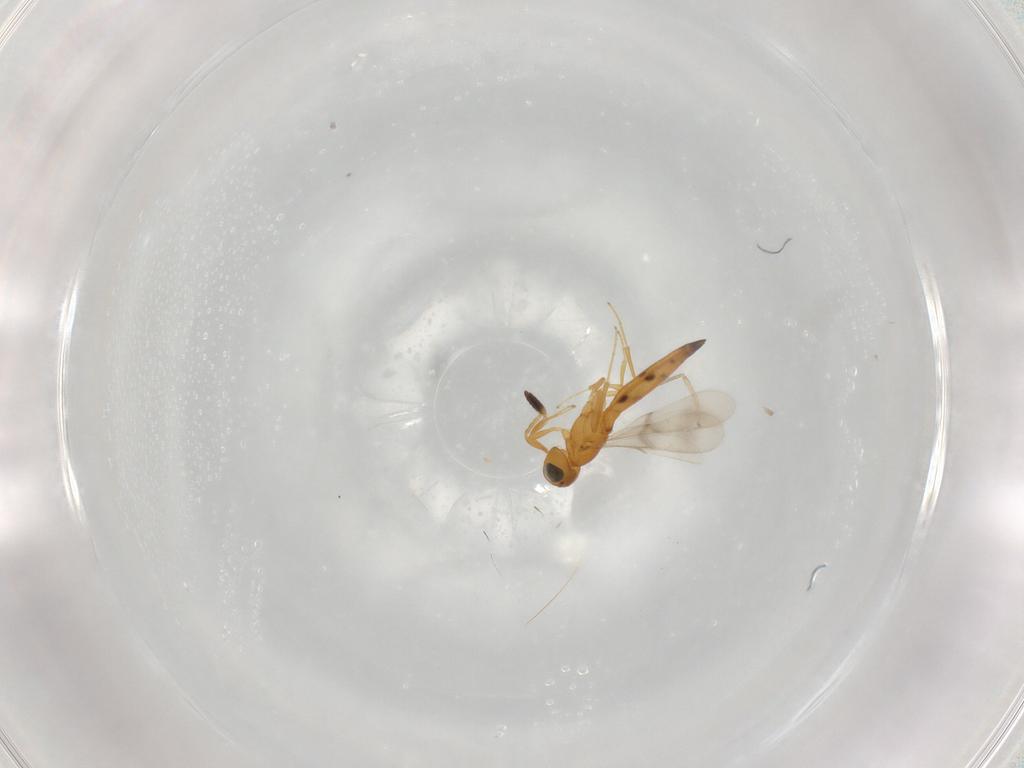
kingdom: Animalia
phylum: Arthropoda
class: Insecta
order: Hymenoptera
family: Scelionidae
